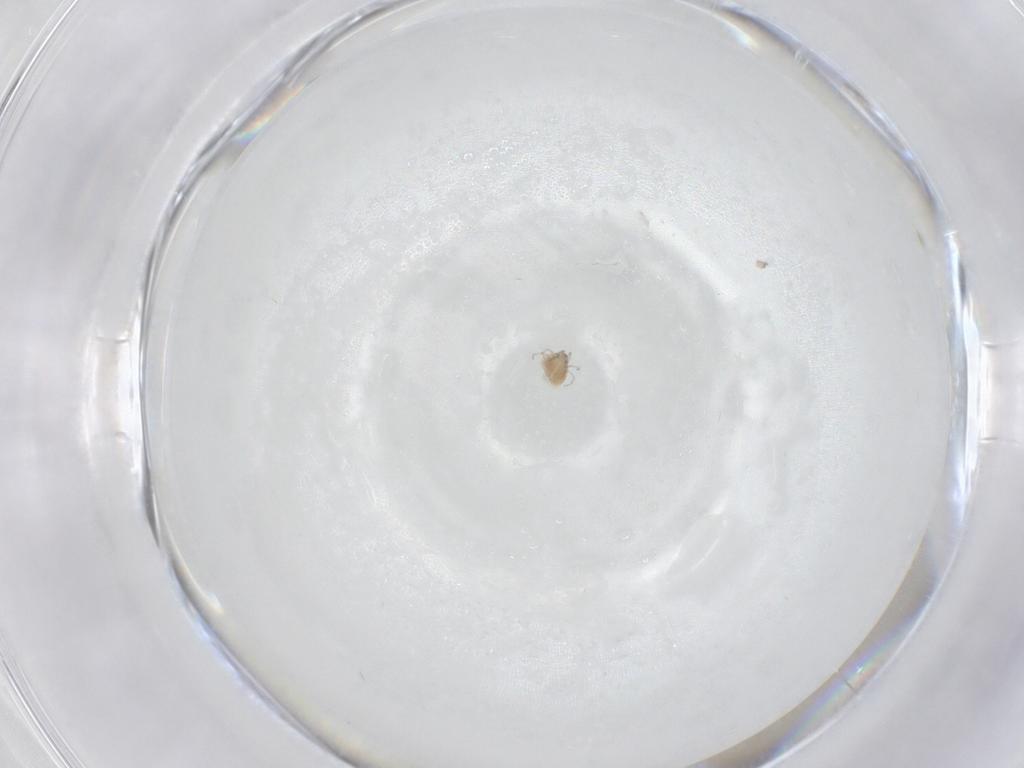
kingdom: Animalia
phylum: Arthropoda
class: Arachnida
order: Trombidiformes
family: Pionidae
